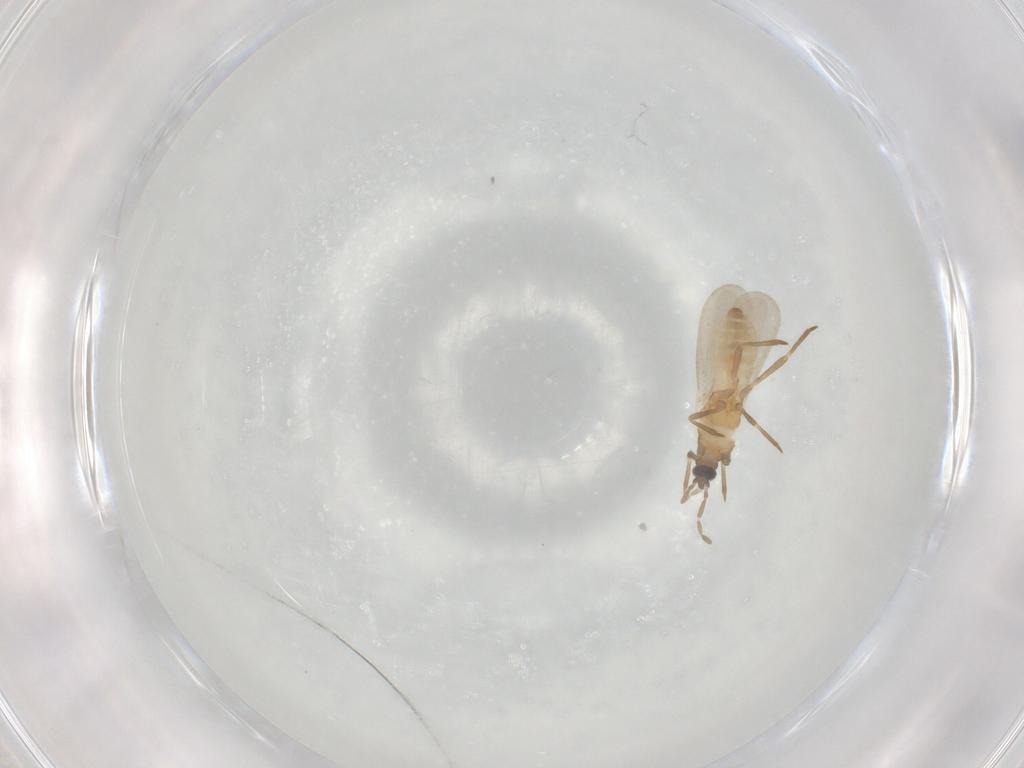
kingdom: Animalia
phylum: Arthropoda
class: Insecta
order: Hemiptera
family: Enicocephalidae
